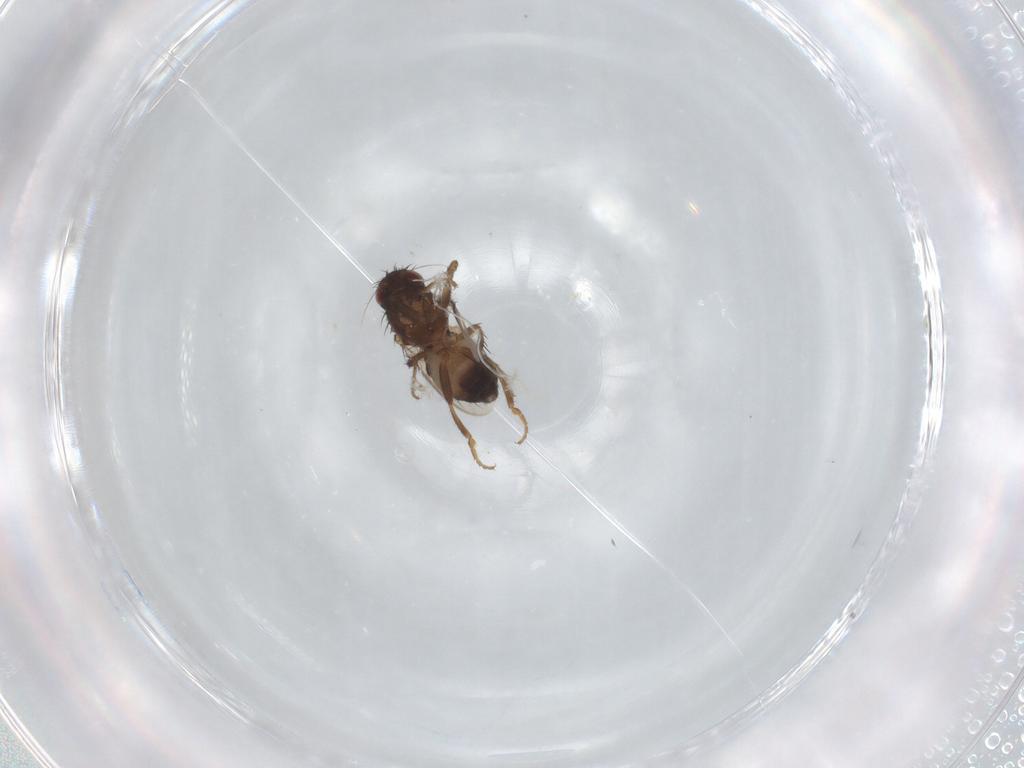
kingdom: Animalia
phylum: Arthropoda
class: Insecta
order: Diptera
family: Sphaeroceridae
